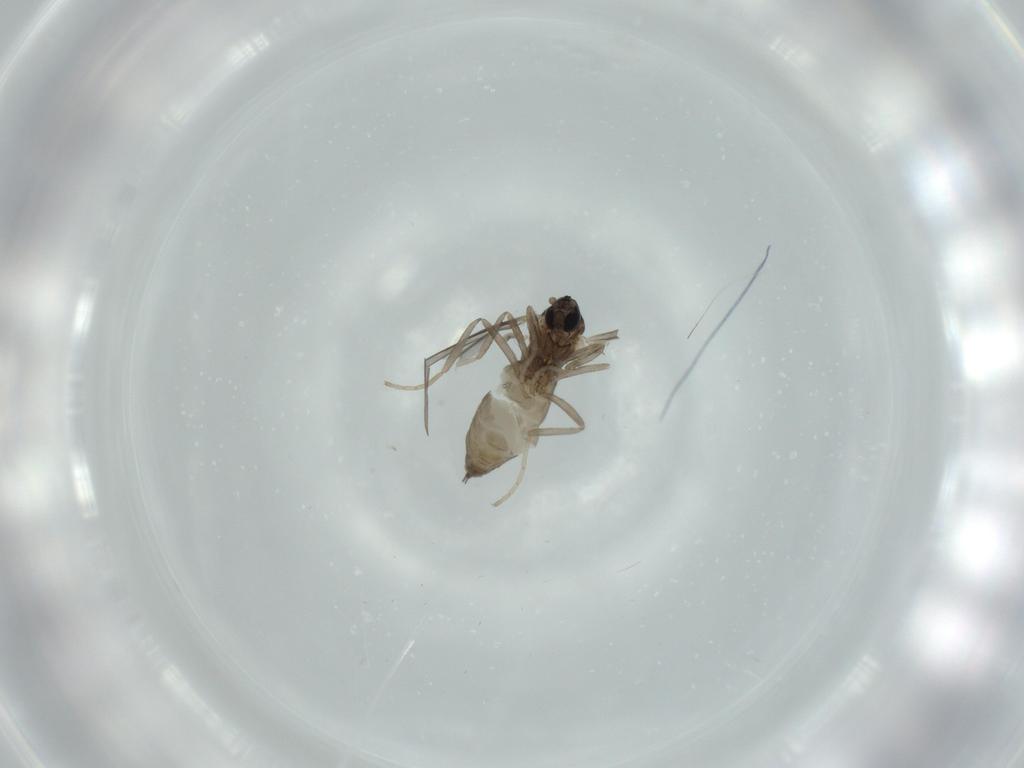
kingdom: Animalia
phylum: Arthropoda
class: Insecta
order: Diptera
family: Cecidomyiidae
